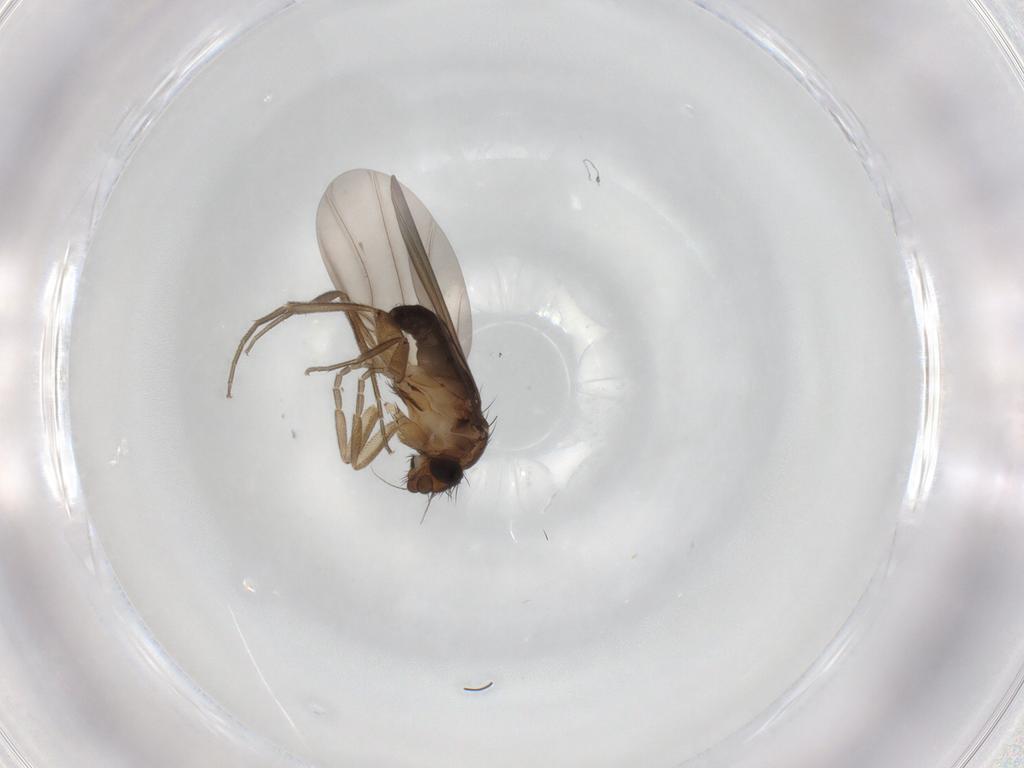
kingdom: Animalia
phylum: Arthropoda
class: Insecta
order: Diptera
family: Phoridae
